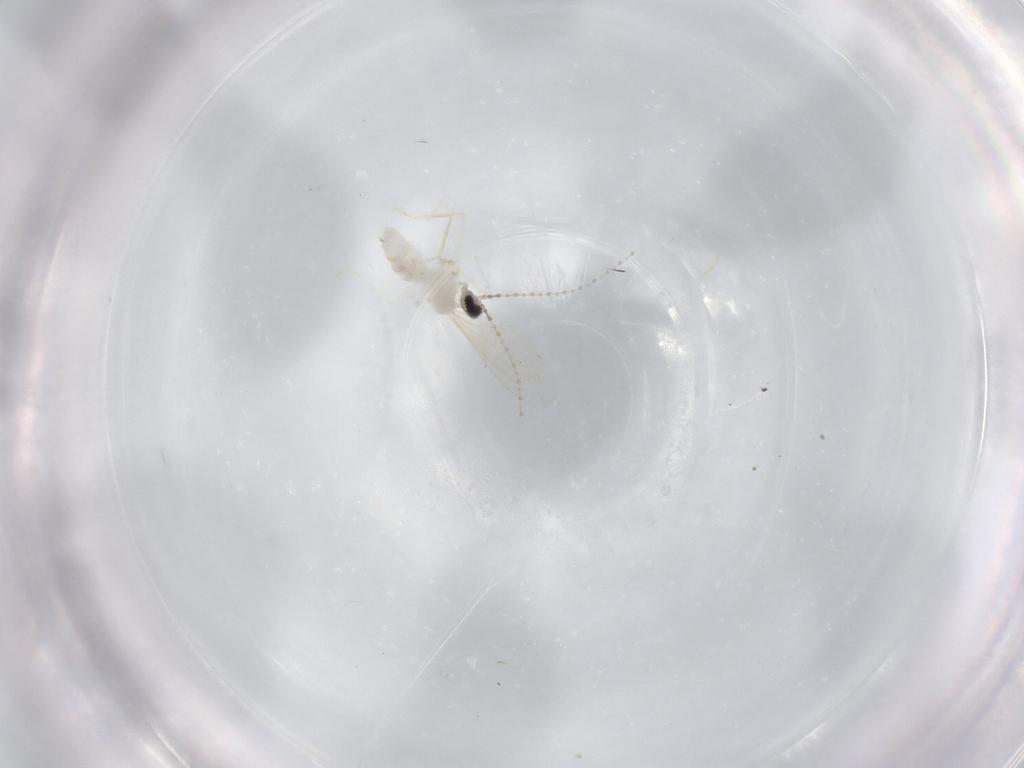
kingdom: Animalia
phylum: Arthropoda
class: Insecta
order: Diptera
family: Cecidomyiidae
